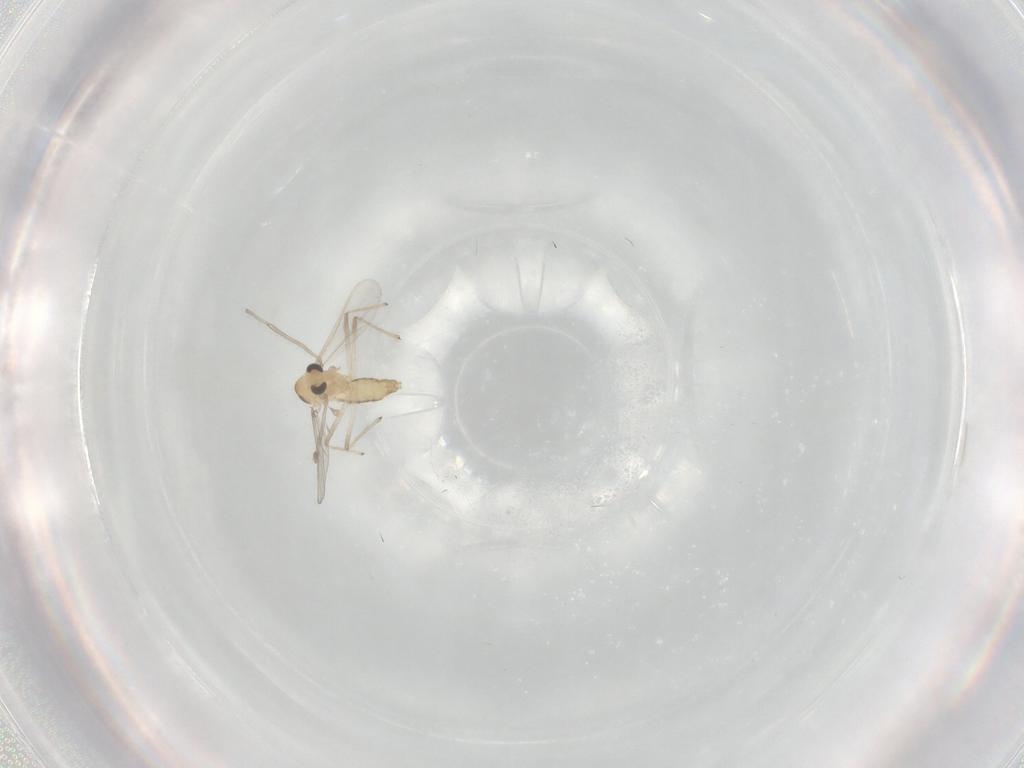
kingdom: Animalia
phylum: Arthropoda
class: Insecta
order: Diptera
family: Chironomidae
